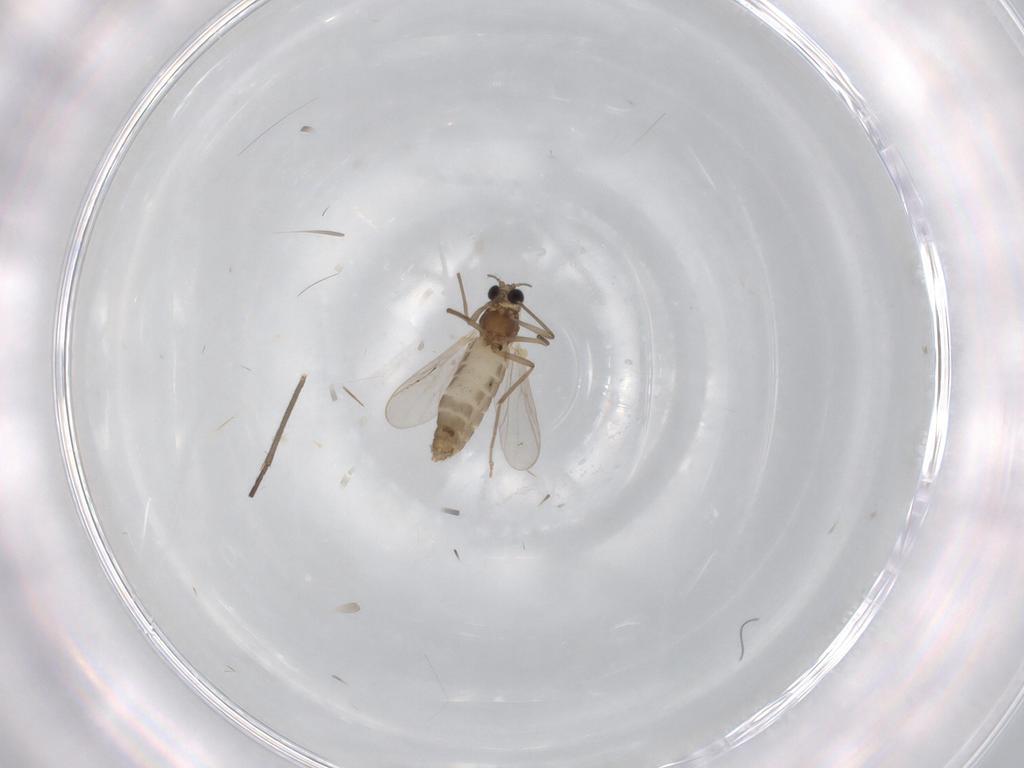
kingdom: Animalia
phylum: Arthropoda
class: Insecta
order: Diptera
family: Chironomidae
